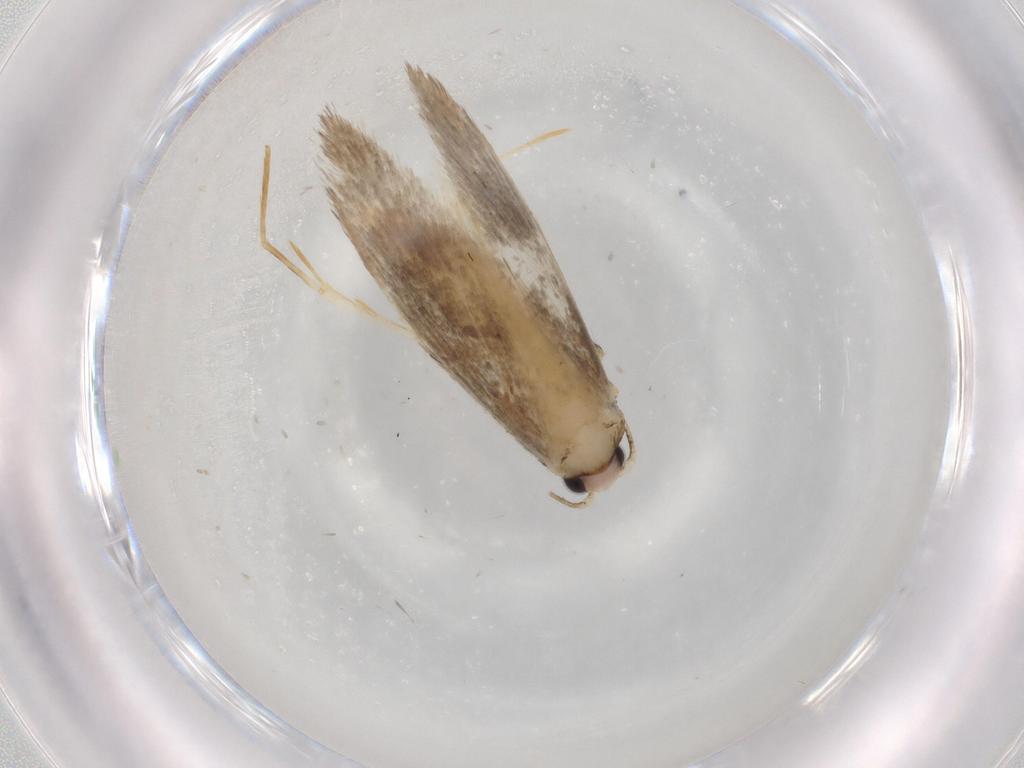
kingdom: Animalia
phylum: Arthropoda
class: Insecta
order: Lepidoptera
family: Tineidae
